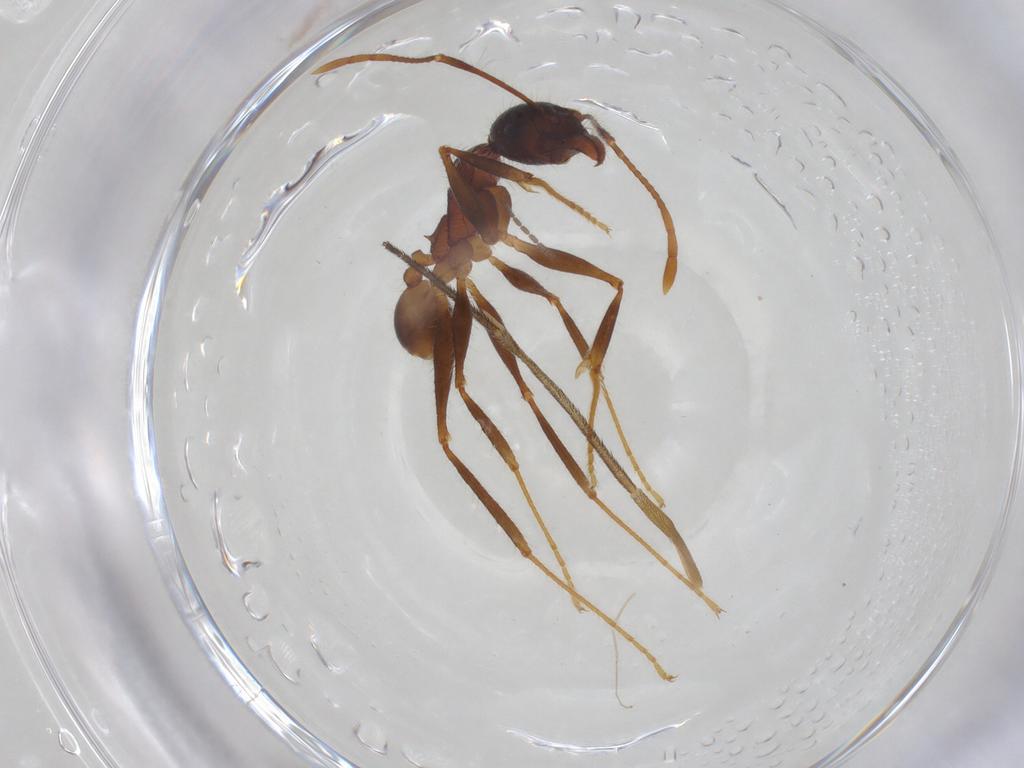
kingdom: Animalia
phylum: Arthropoda
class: Insecta
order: Hymenoptera
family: Formicidae
